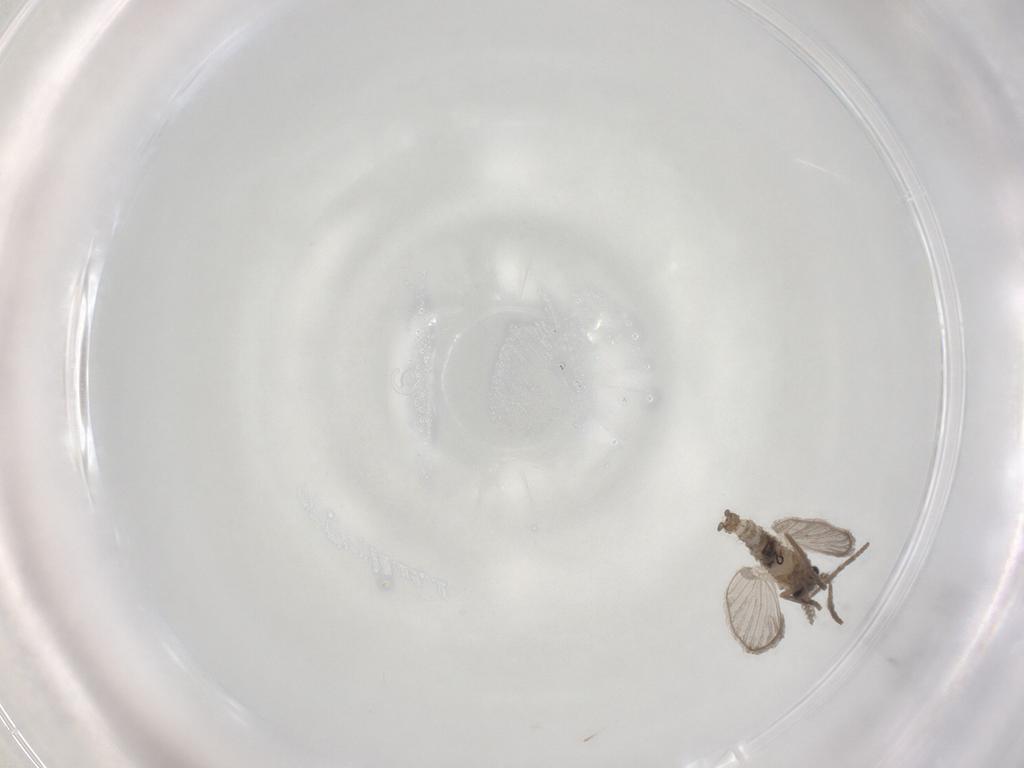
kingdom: Animalia
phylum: Arthropoda
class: Insecta
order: Diptera
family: Psychodidae
